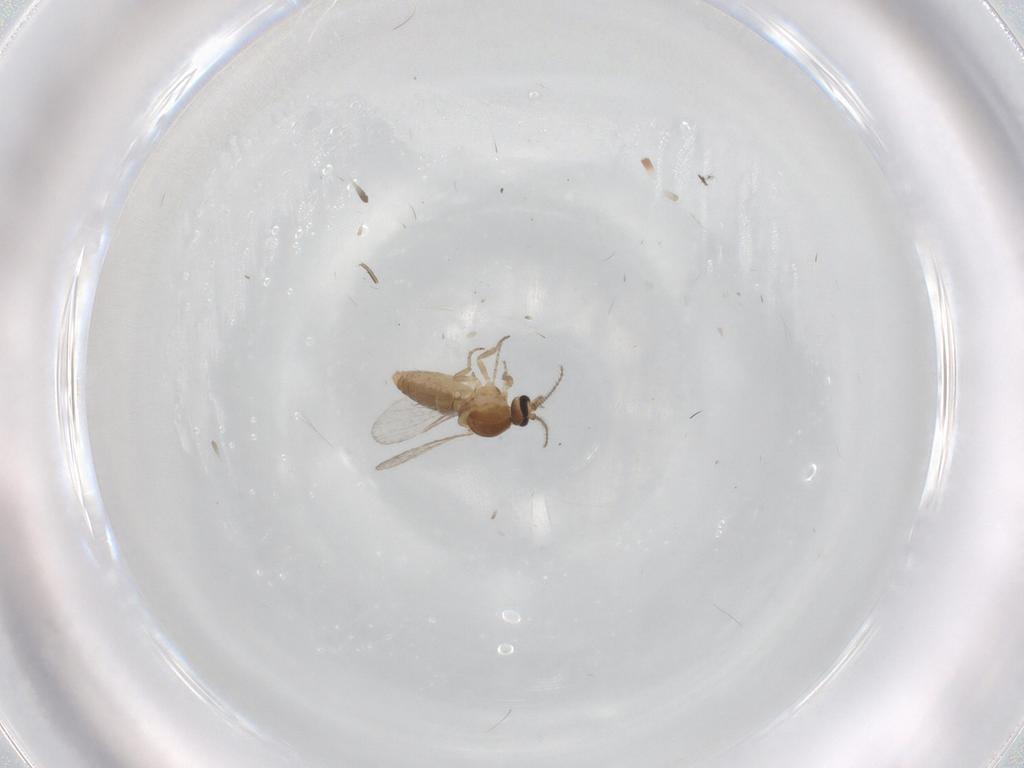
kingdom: Animalia
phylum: Arthropoda
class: Insecta
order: Diptera
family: Ceratopogonidae
